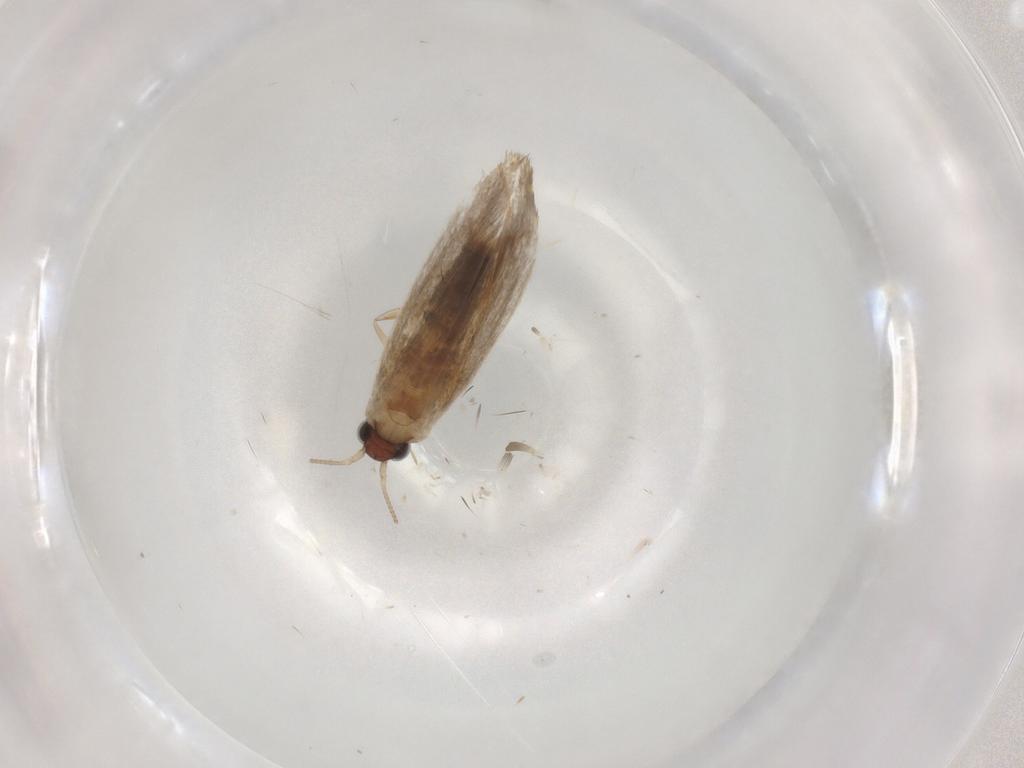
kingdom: Animalia
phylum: Arthropoda
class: Insecta
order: Lepidoptera
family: Tineidae
